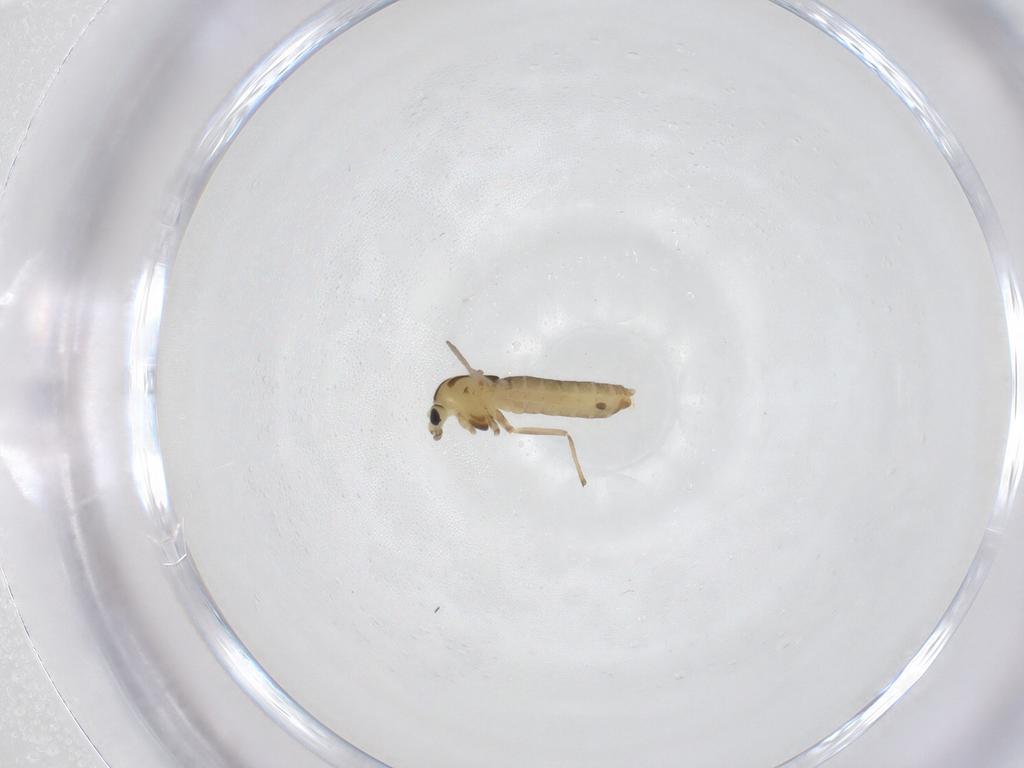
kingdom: Animalia
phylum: Arthropoda
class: Insecta
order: Diptera
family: Chironomidae
